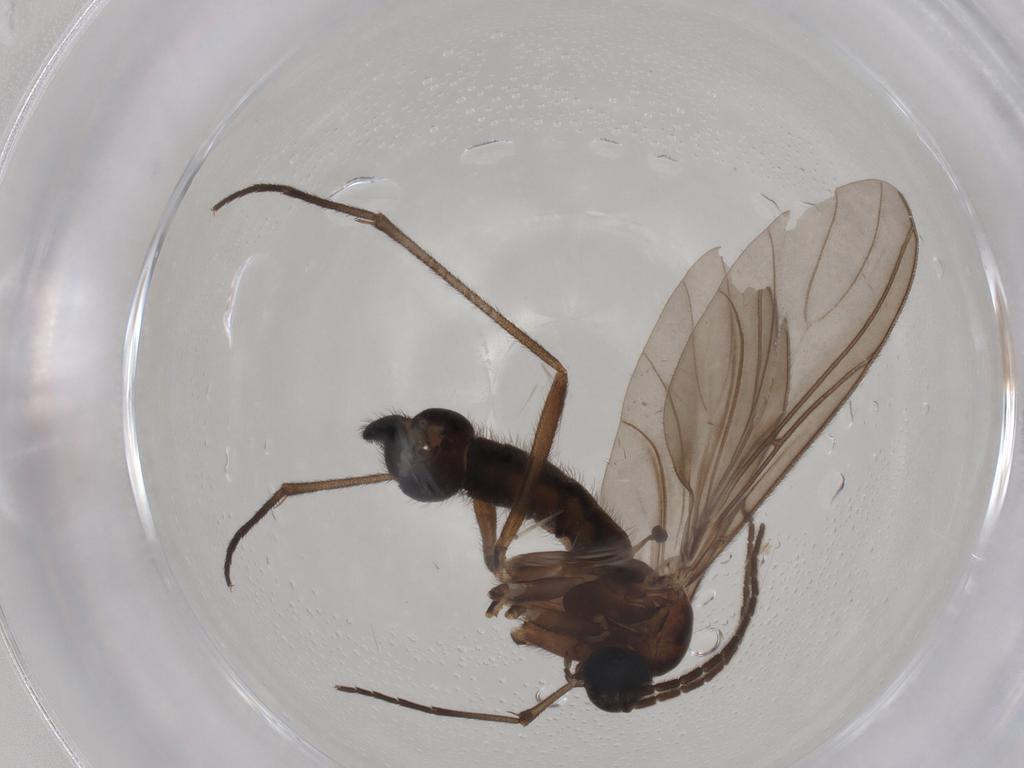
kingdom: Animalia
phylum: Arthropoda
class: Insecta
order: Diptera
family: Sciaridae
